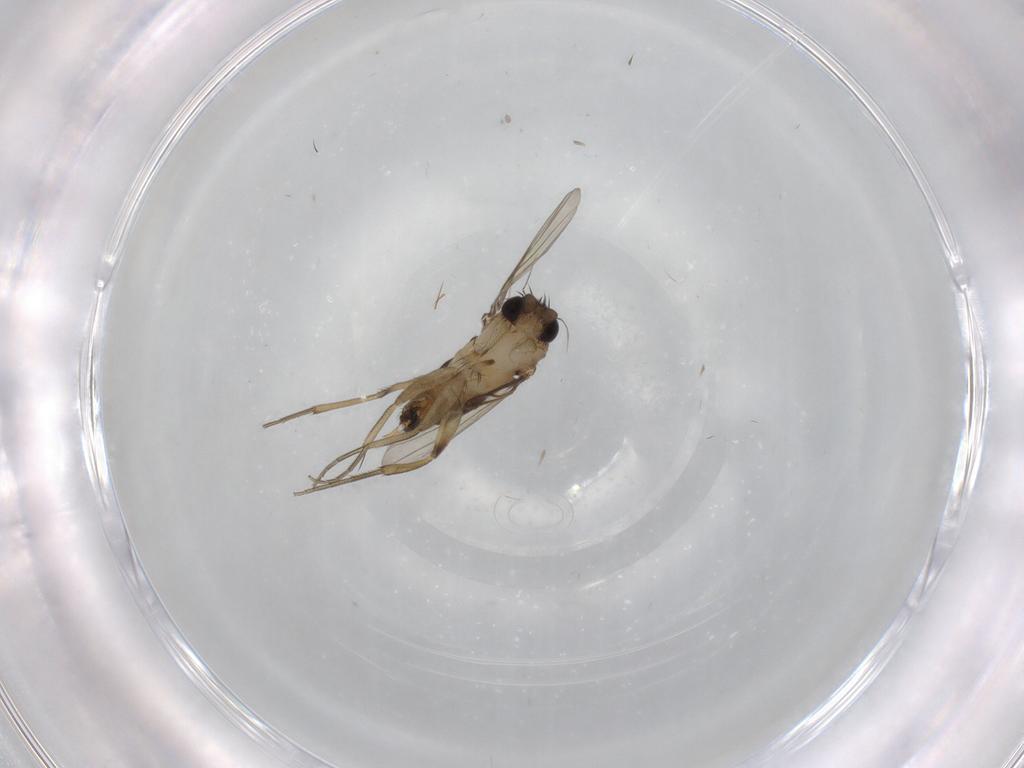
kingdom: Animalia
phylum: Arthropoda
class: Insecta
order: Diptera
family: Phoridae
